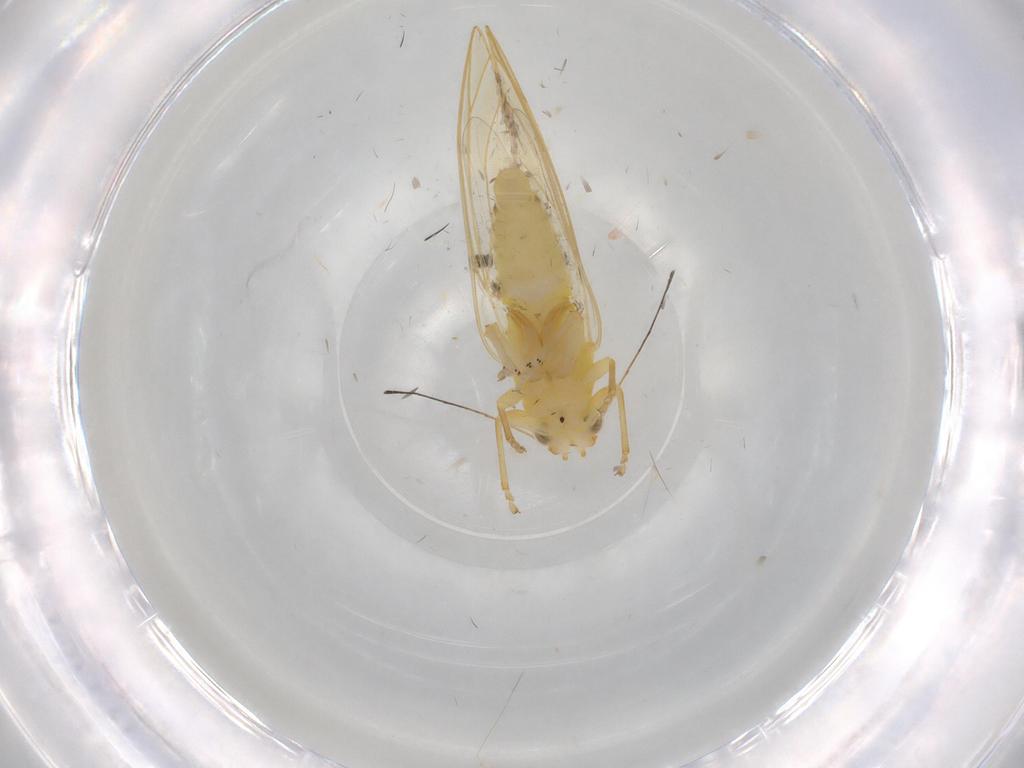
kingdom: Animalia
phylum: Arthropoda
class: Insecta
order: Hemiptera
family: Triozidae
